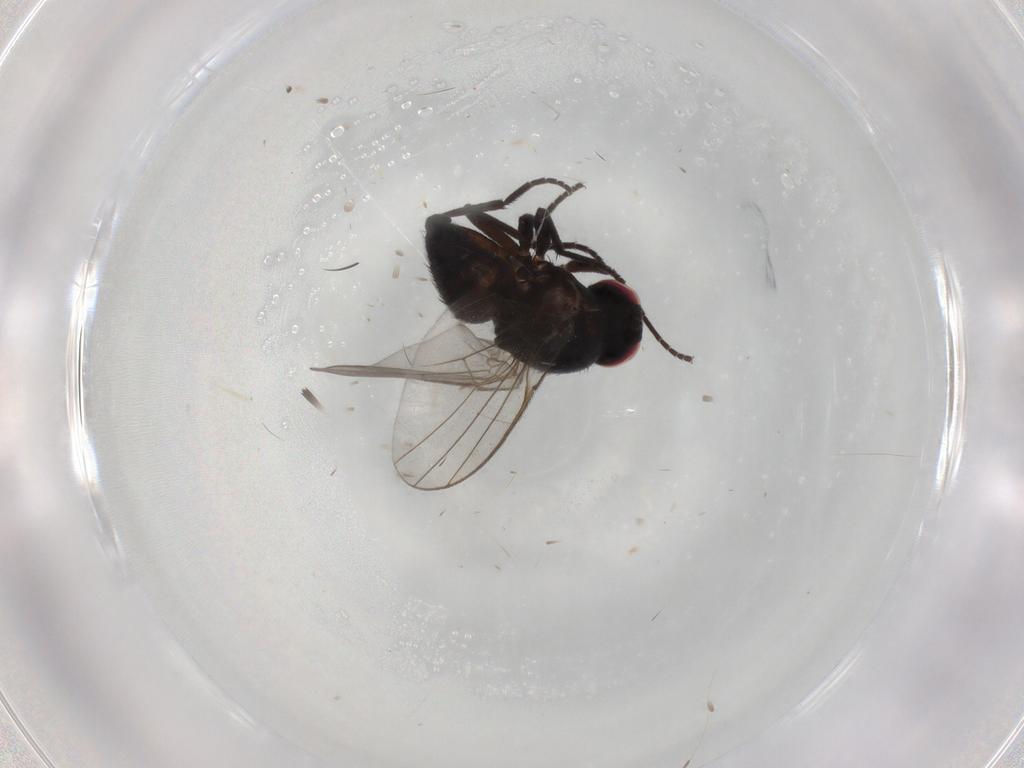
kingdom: Animalia
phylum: Arthropoda
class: Insecta
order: Diptera
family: Agromyzidae
